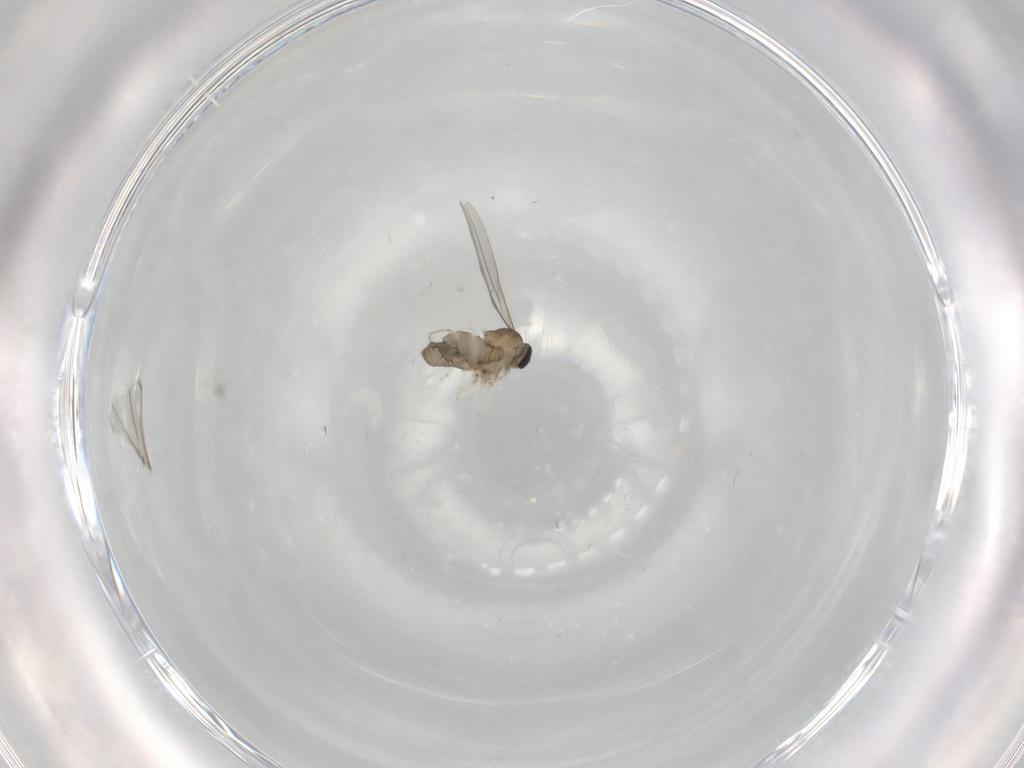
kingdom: Animalia
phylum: Arthropoda
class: Insecta
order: Diptera
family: Cecidomyiidae
